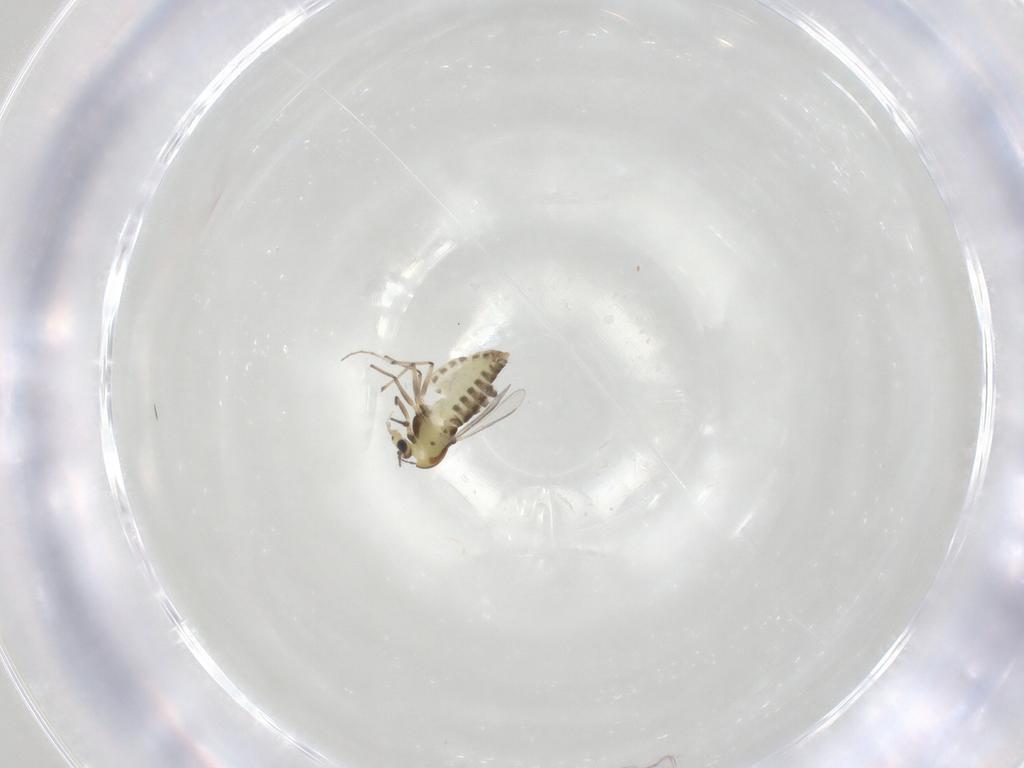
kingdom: Animalia
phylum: Arthropoda
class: Insecta
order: Diptera
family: Chironomidae
